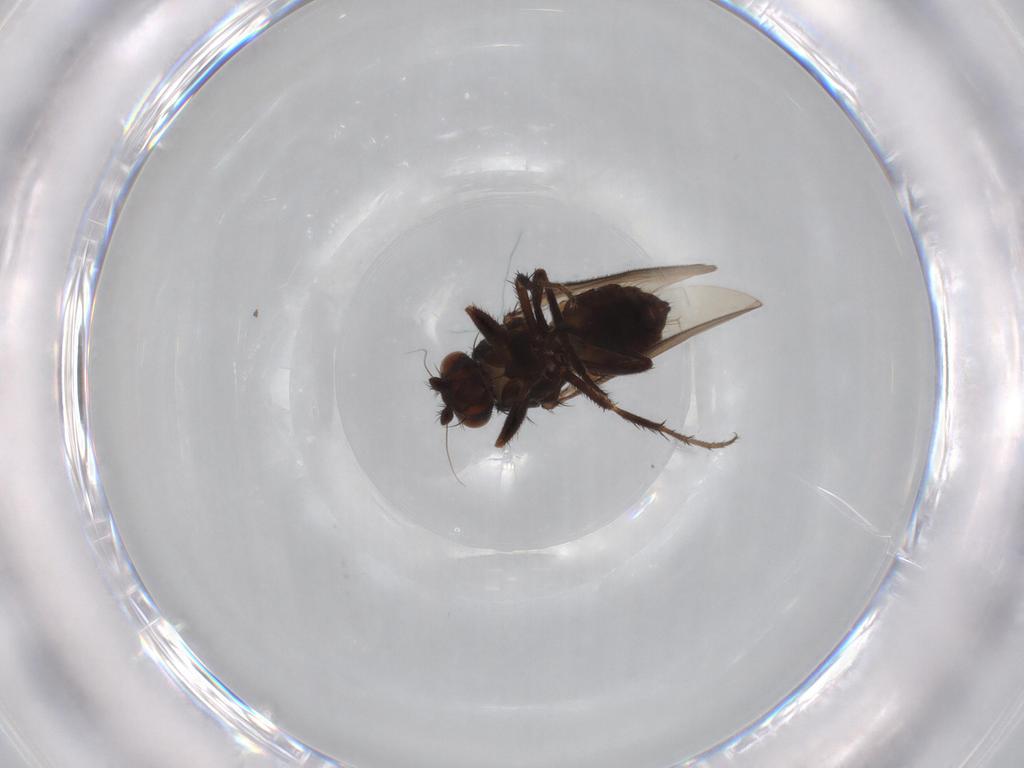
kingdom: Animalia
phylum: Arthropoda
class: Insecta
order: Diptera
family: Sphaeroceridae
